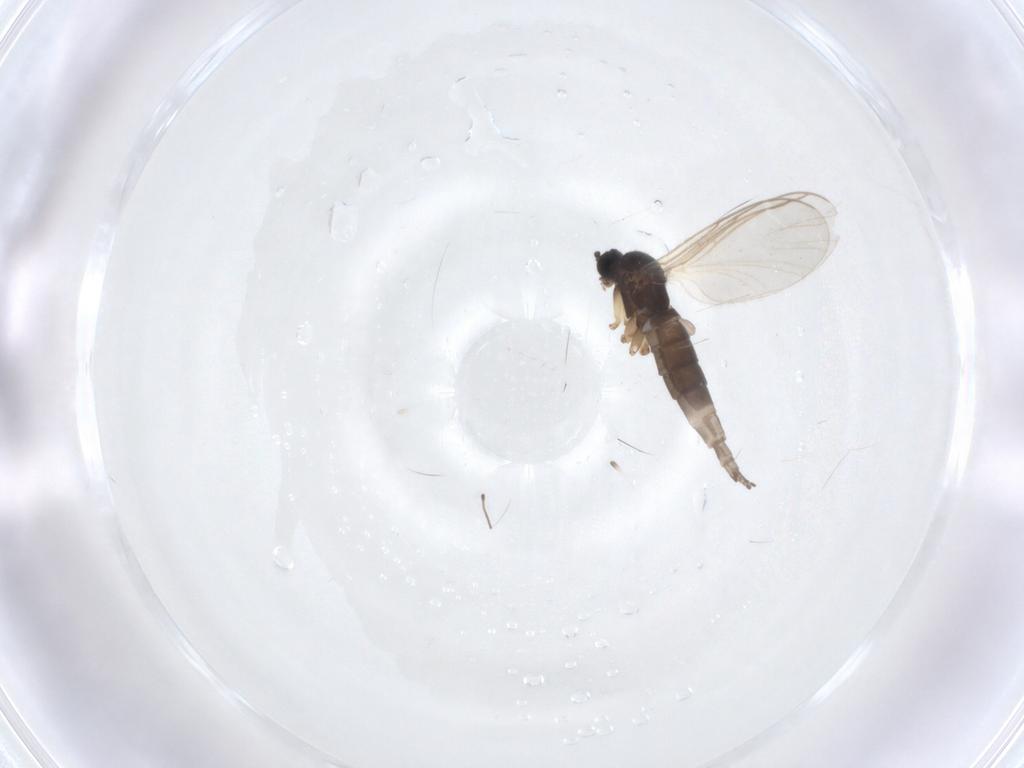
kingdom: Animalia
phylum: Arthropoda
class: Insecta
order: Diptera
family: Sciaridae
